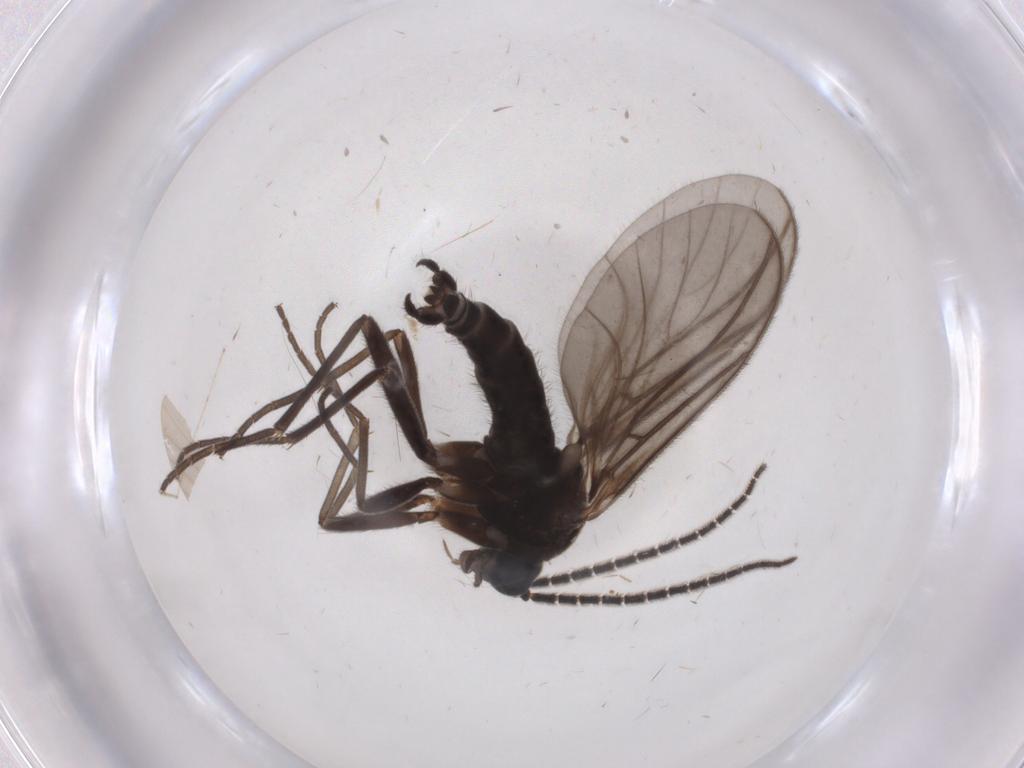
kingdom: Animalia
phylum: Arthropoda
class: Insecta
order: Diptera
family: Sciaridae
